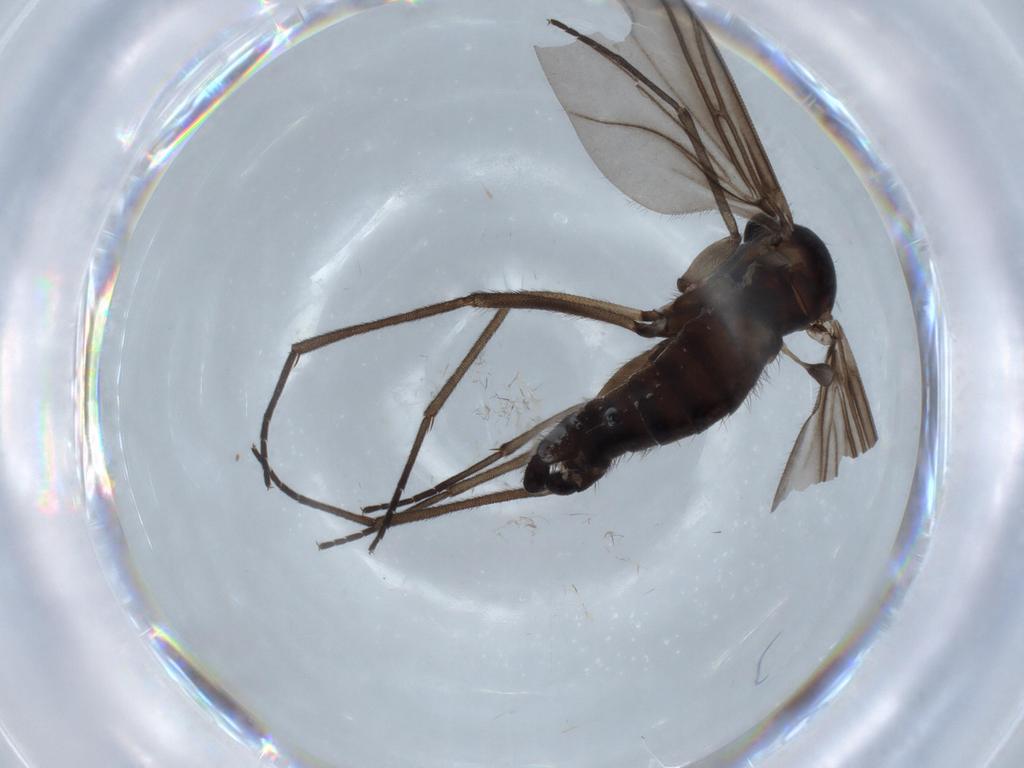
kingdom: Animalia
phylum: Arthropoda
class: Insecta
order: Diptera
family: Sciaridae
